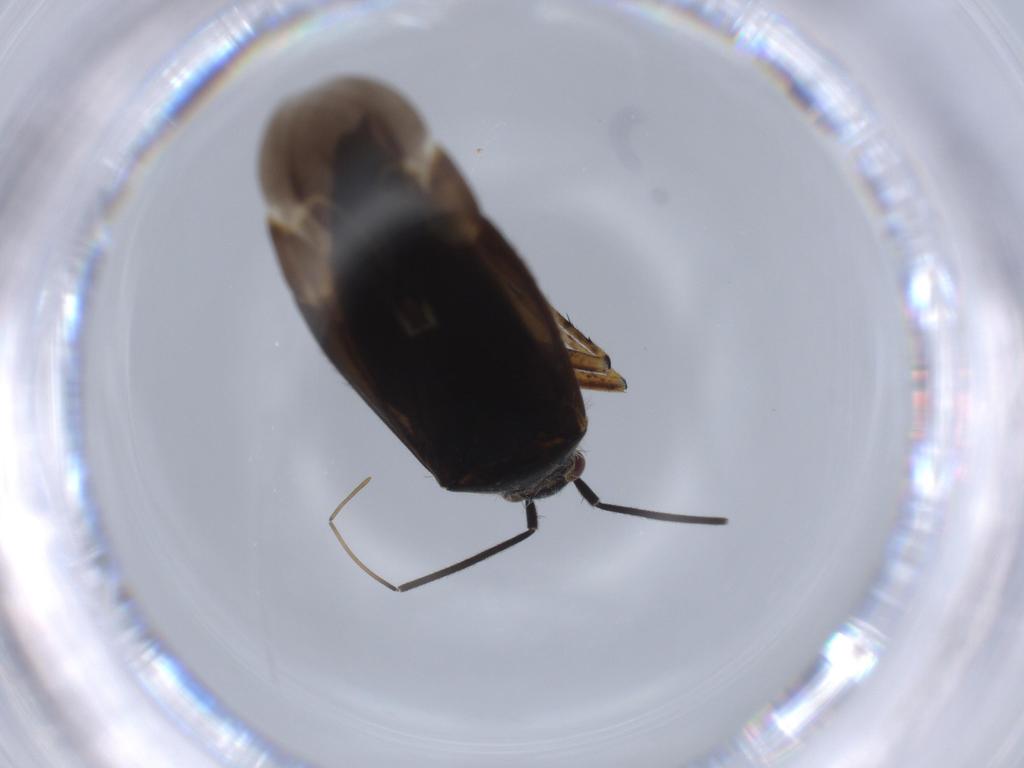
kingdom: Animalia
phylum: Arthropoda
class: Insecta
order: Hemiptera
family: Miridae
